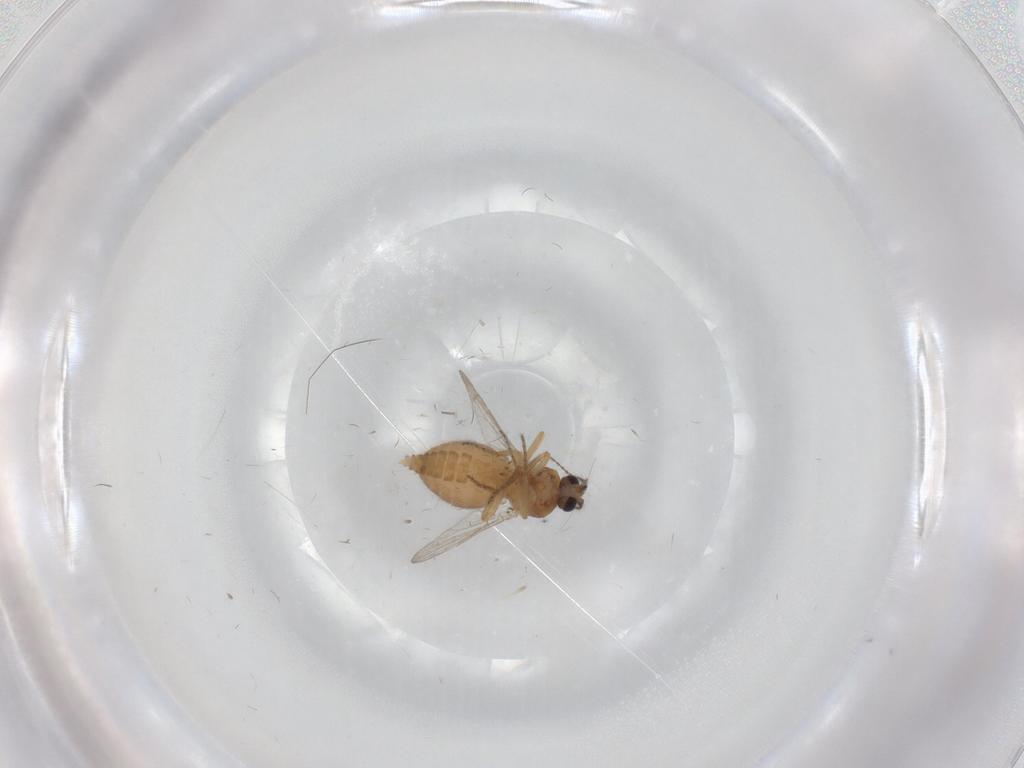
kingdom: Animalia
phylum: Arthropoda
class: Insecta
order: Diptera
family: Ceratopogonidae
